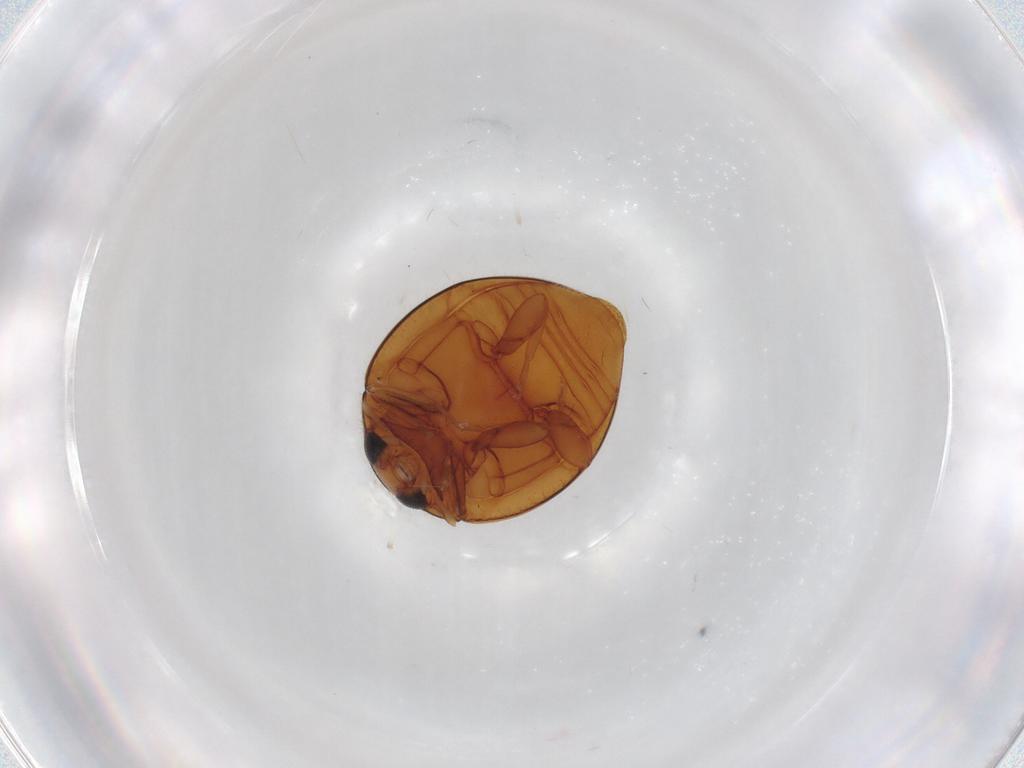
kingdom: Animalia
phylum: Arthropoda
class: Insecta
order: Coleoptera
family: Coccinellidae
